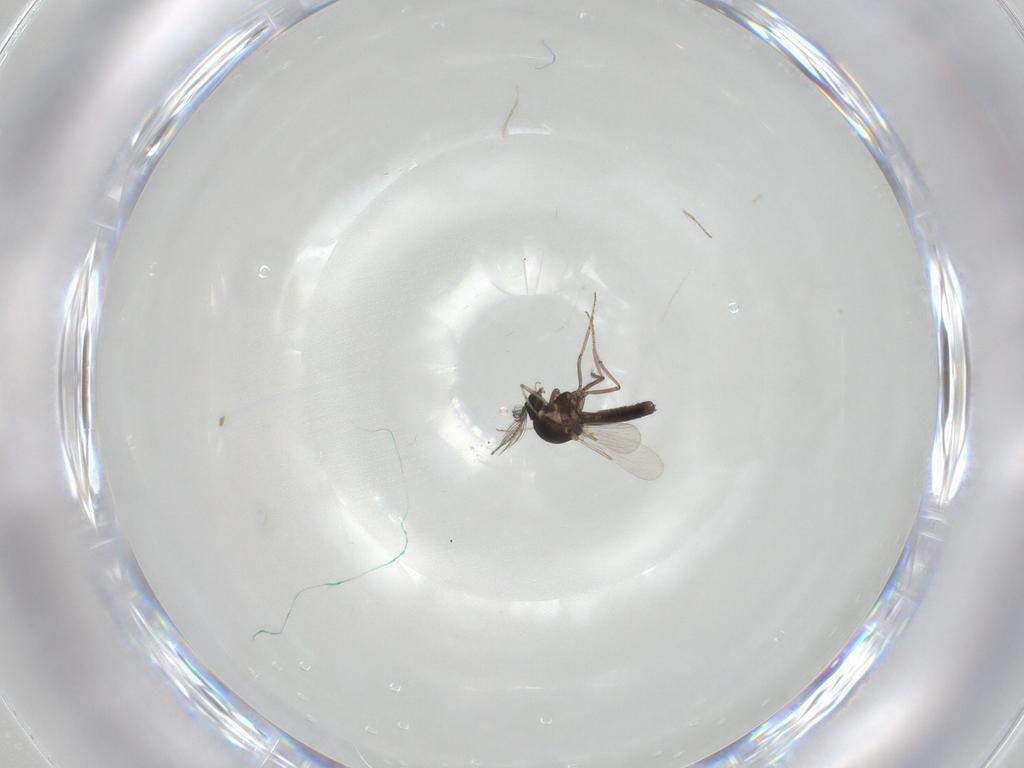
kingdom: Animalia
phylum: Arthropoda
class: Insecta
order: Diptera
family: Ceratopogonidae
